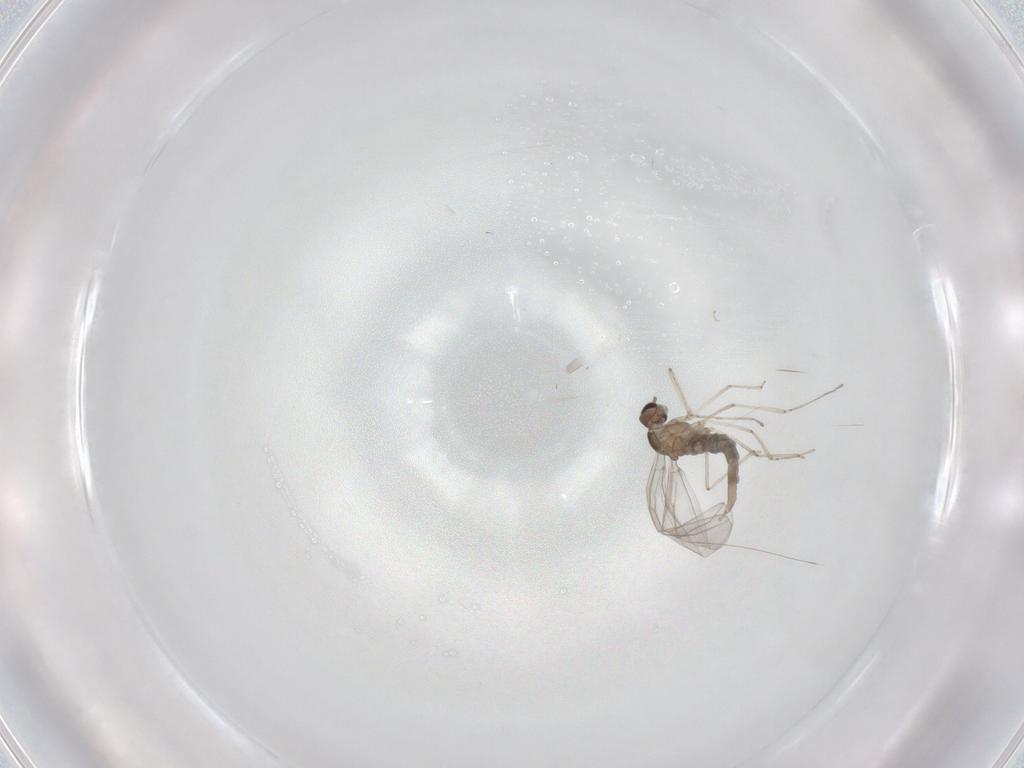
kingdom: Animalia
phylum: Arthropoda
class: Insecta
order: Diptera
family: Cecidomyiidae
